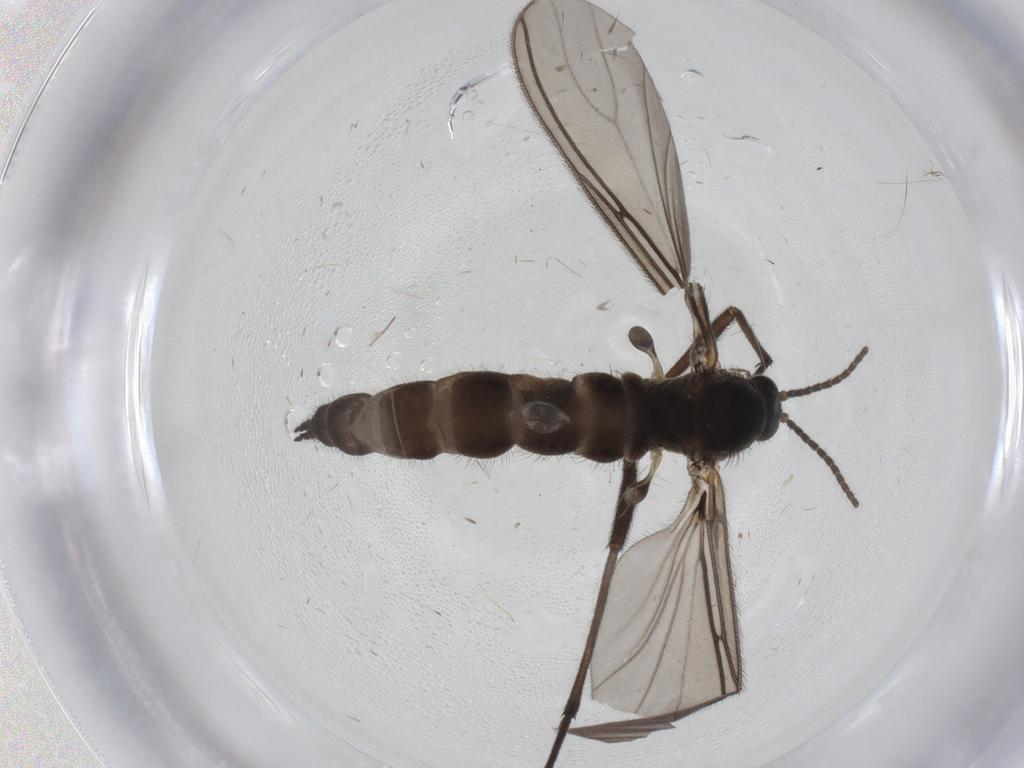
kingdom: Animalia
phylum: Arthropoda
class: Insecta
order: Diptera
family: Sciaridae
